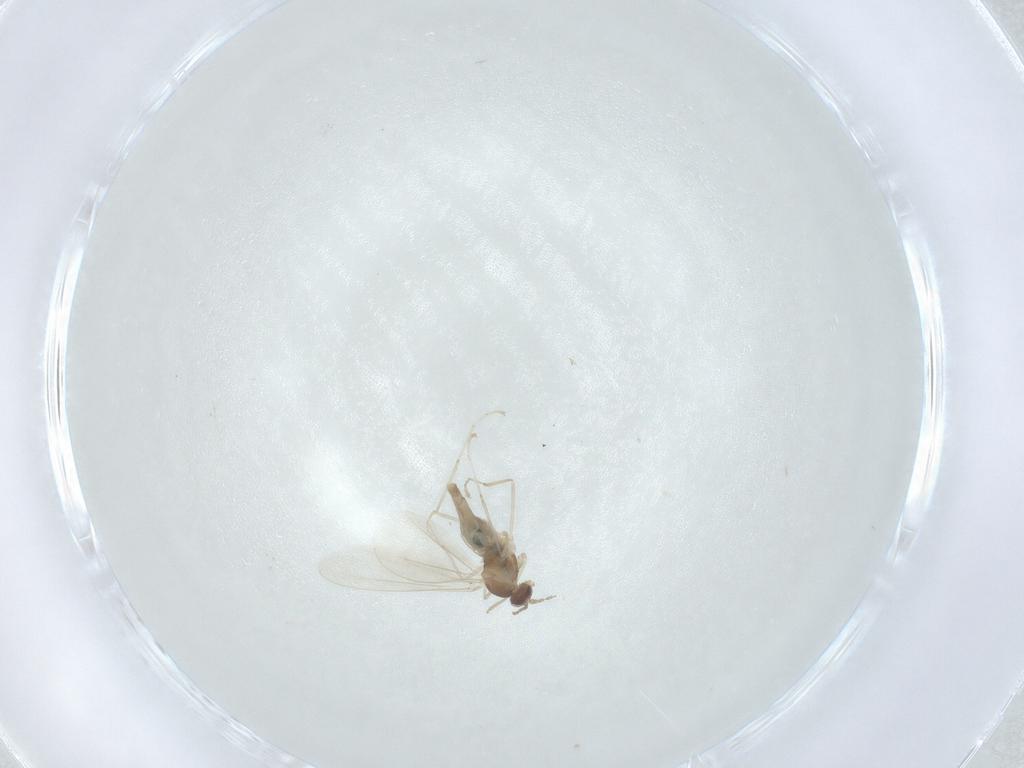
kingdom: Animalia
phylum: Arthropoda
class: Insecta
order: Diptera
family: Cecidomyiidae
